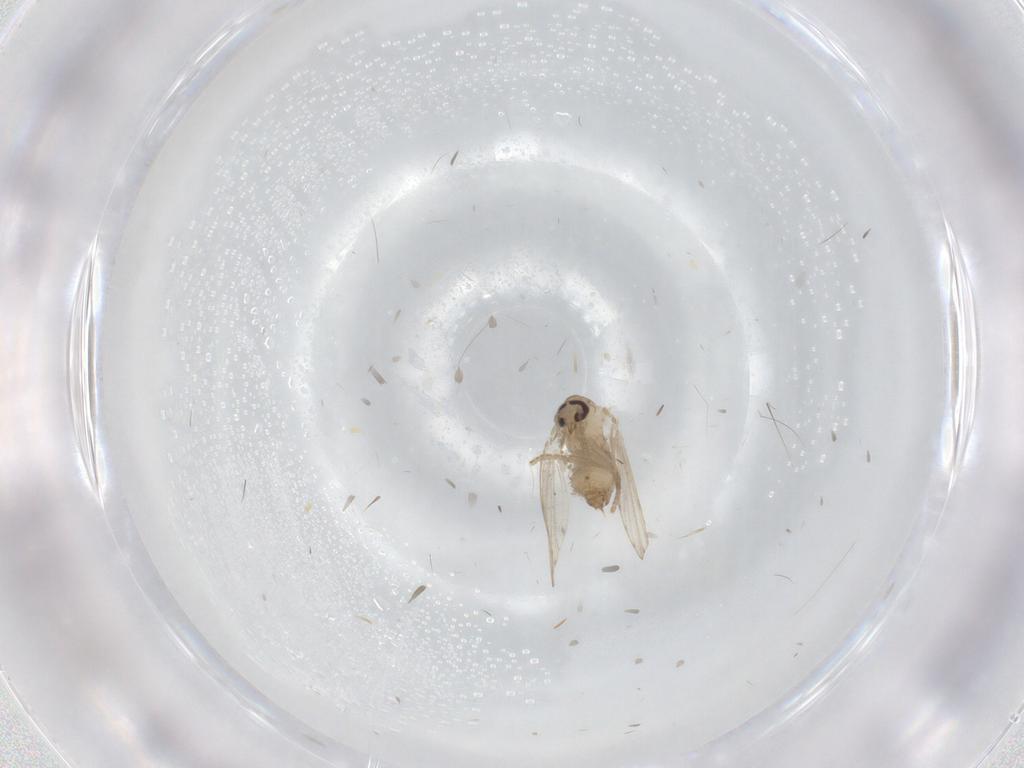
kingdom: Animalia
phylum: Arthropoda
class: Insecta
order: Diptera
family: Psychodidae
